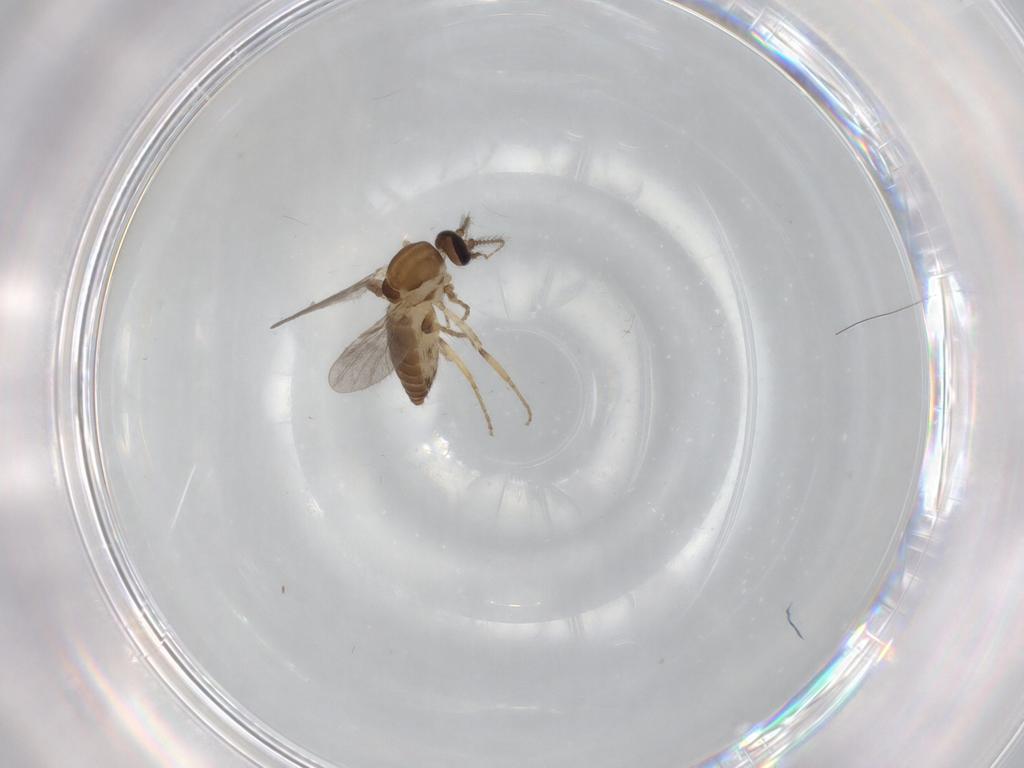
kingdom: Animalia
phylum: Arthropoda
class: Insecta
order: Diptera
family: Ceratopogonidae
